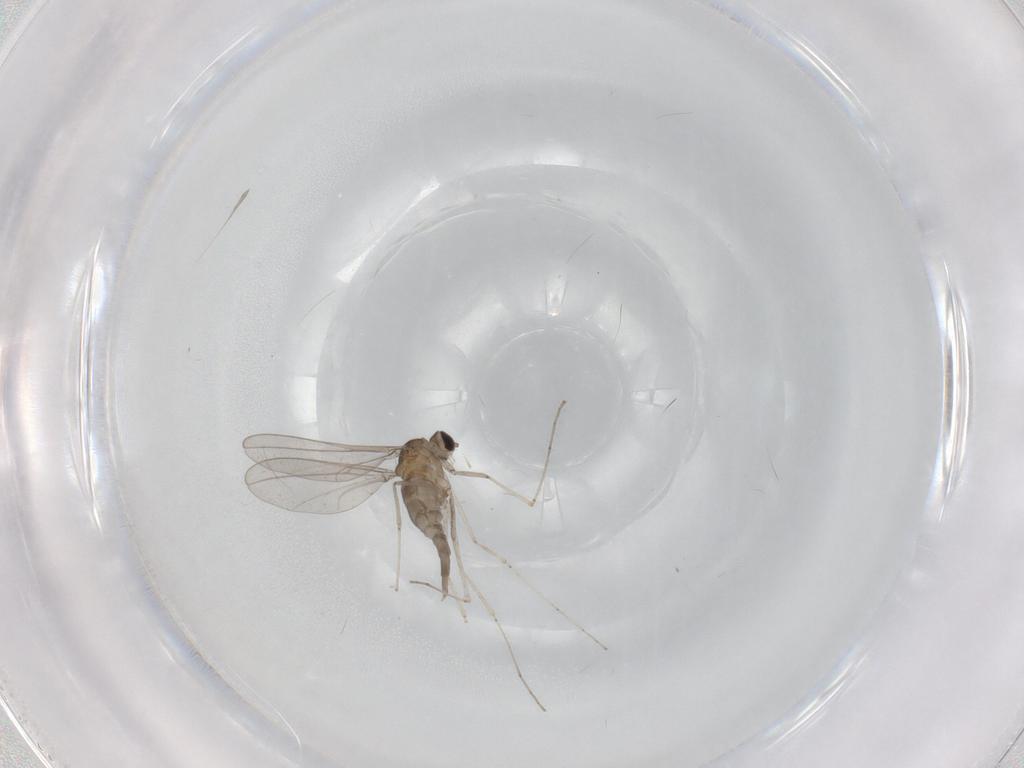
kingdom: Animalia
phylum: Arthropoda
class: Insecta
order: Diptera
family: Cecidomyiidae
